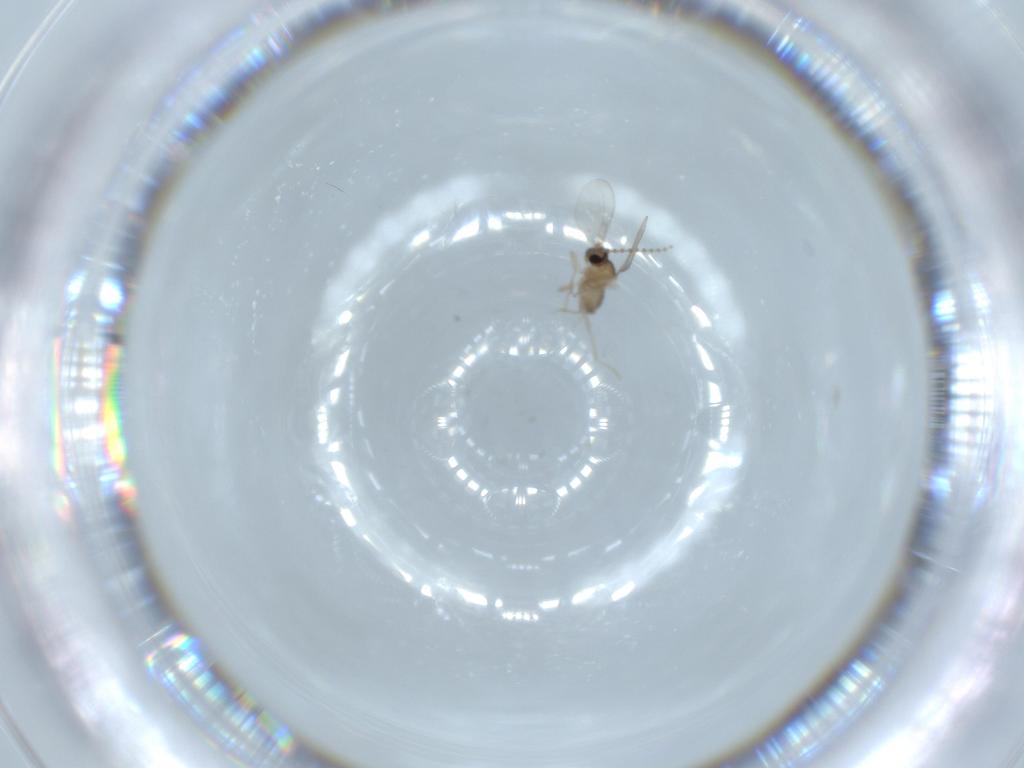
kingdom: Animalia
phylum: Arthropoda
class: Insecta
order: Diptera
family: Cecidomyiidae
